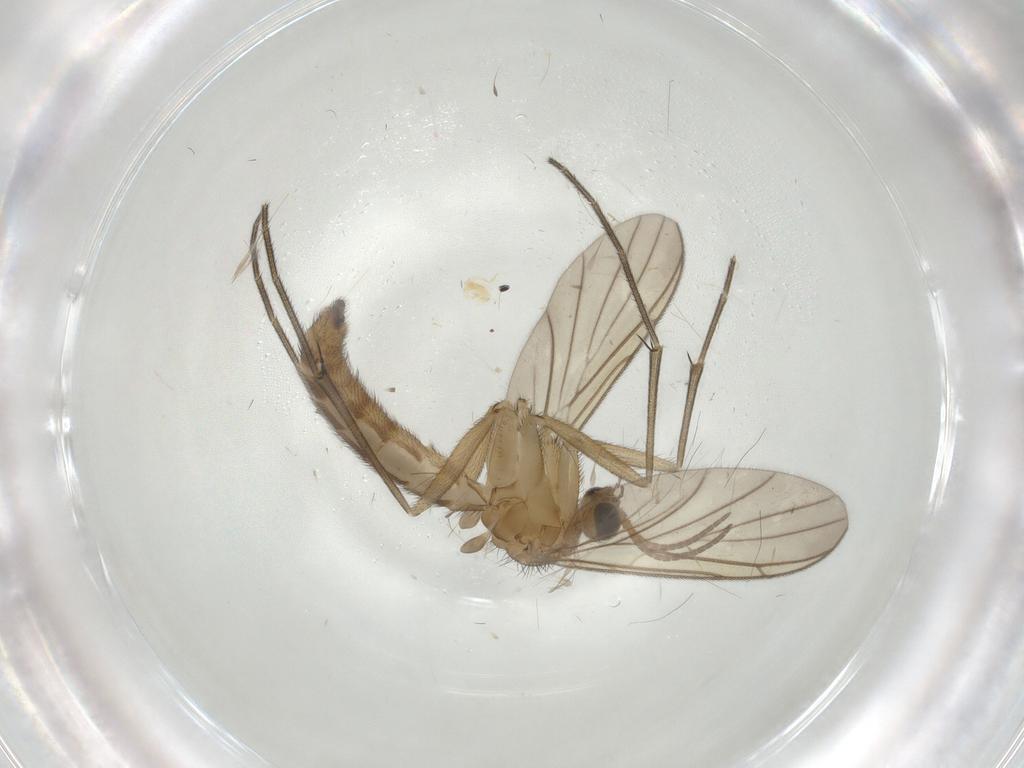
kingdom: Animalia
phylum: Arthropoda
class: Insecta
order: Diptera
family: Keroplatidae
